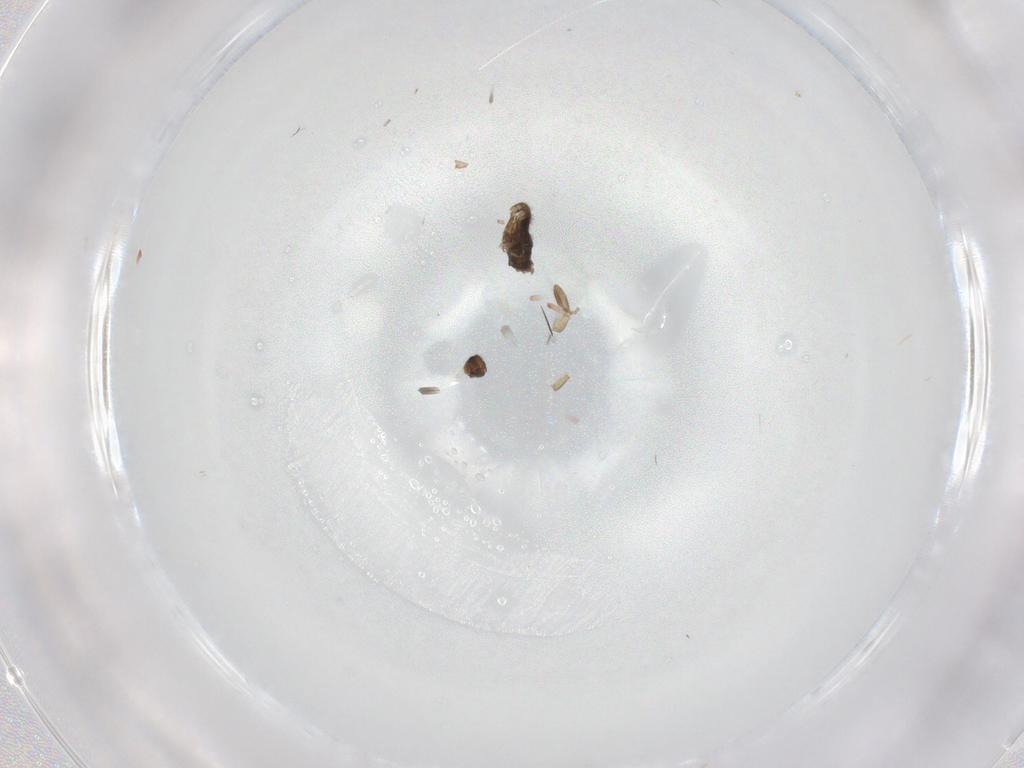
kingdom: Animalia
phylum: Arthropoda
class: Insecta
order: Diptera
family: Phoridae
